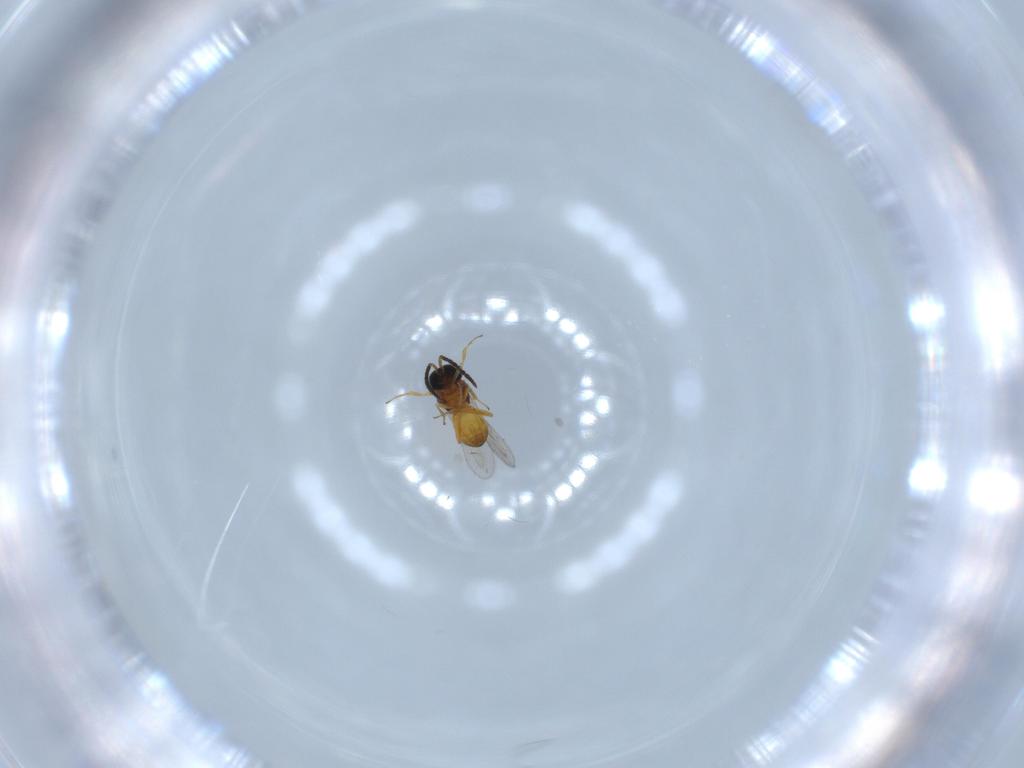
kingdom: Animalia
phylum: Arthropoda
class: Insecta
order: Hymenoptera
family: Scelionidae
